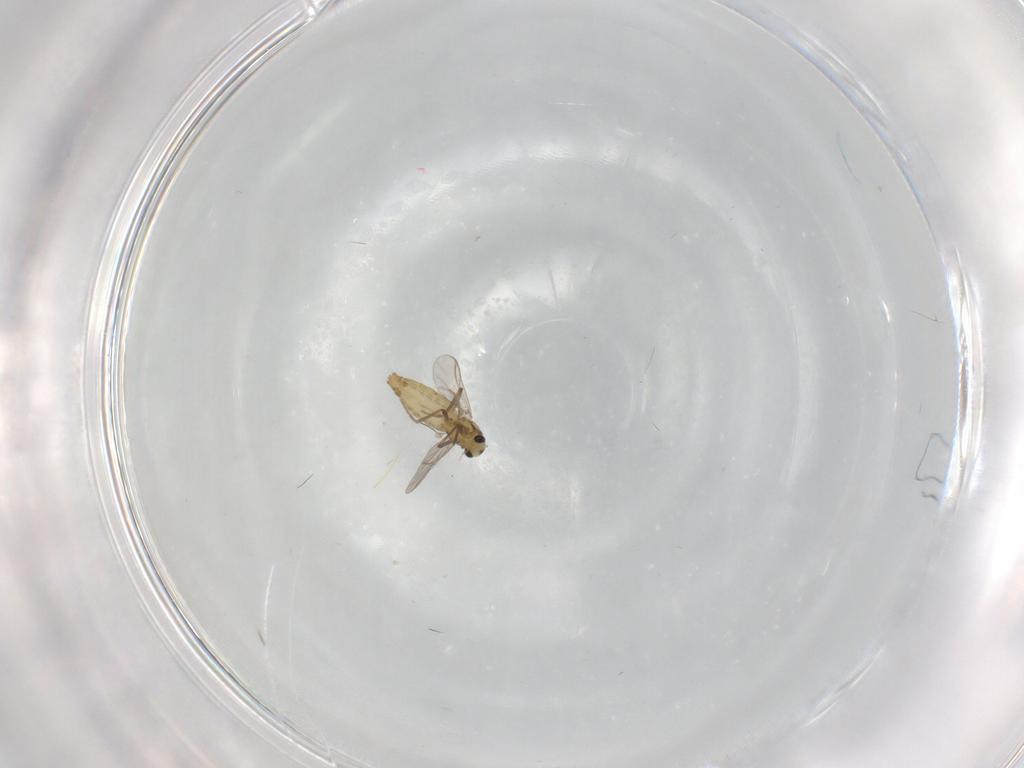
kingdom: Animalia
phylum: Arthropoda
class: Insecta
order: Diptera
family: Chironomidae
